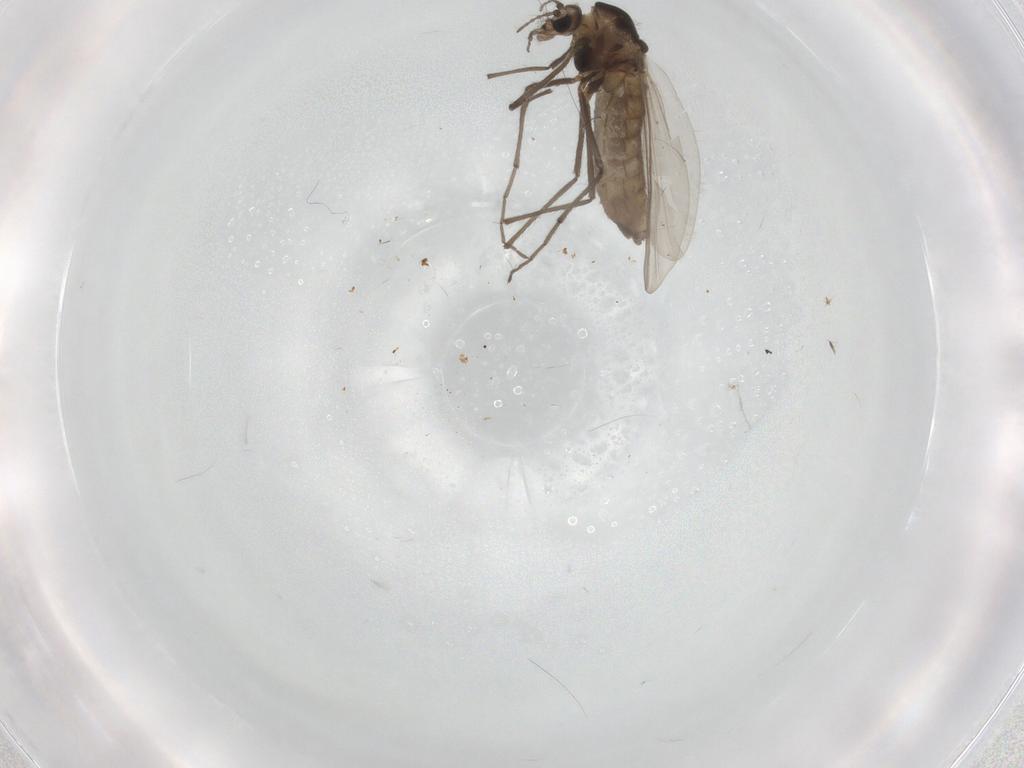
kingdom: Animalia
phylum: Arthropoda
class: Insecta
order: Diptera
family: Chironomidae
